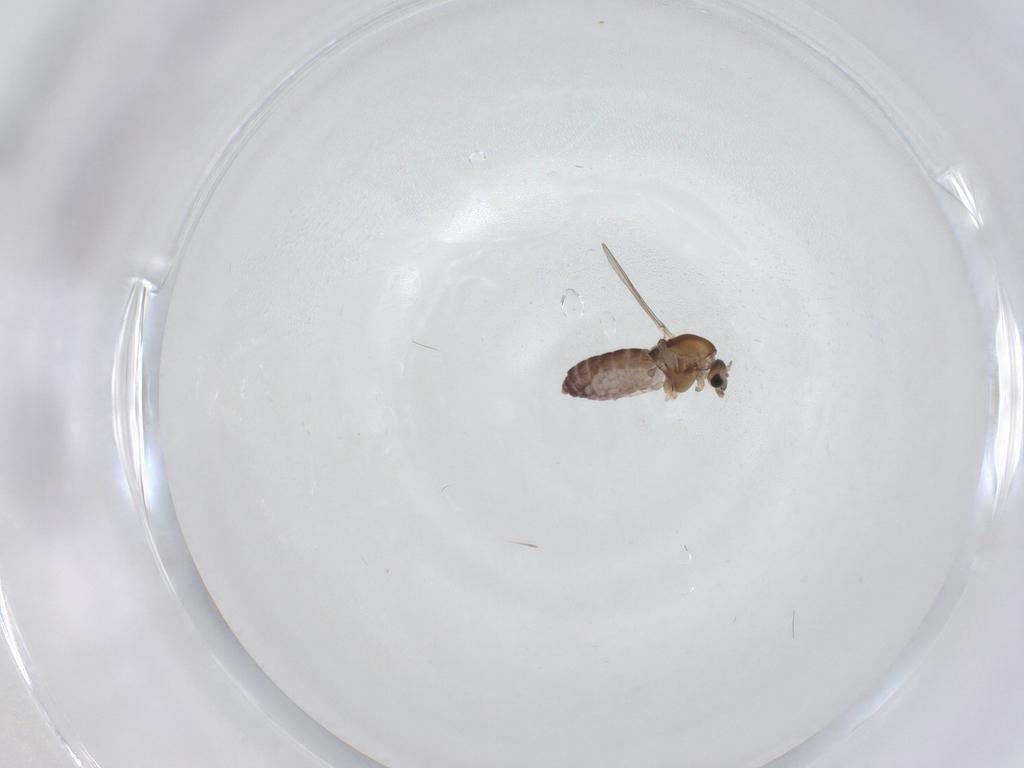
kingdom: Animalia
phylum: Arthropoda
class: Insecta
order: Diptera
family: Chironomidae
